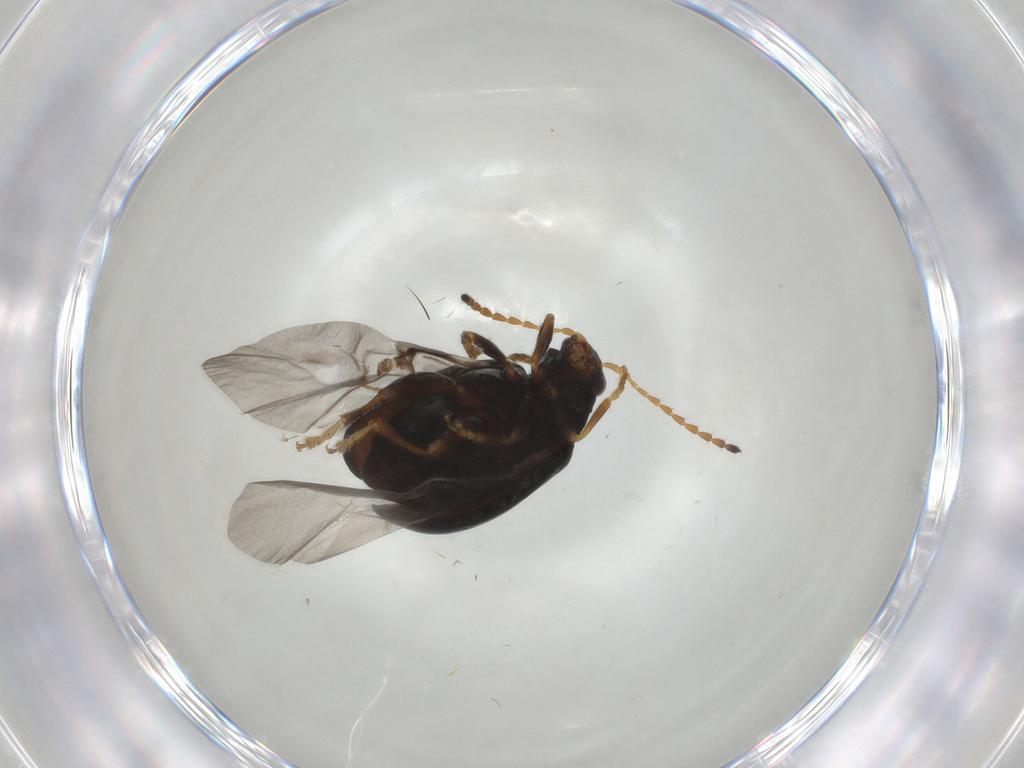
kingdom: Animalia
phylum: Arthropoda
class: Insecta
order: Coleoptera
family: Chrysomelidae
